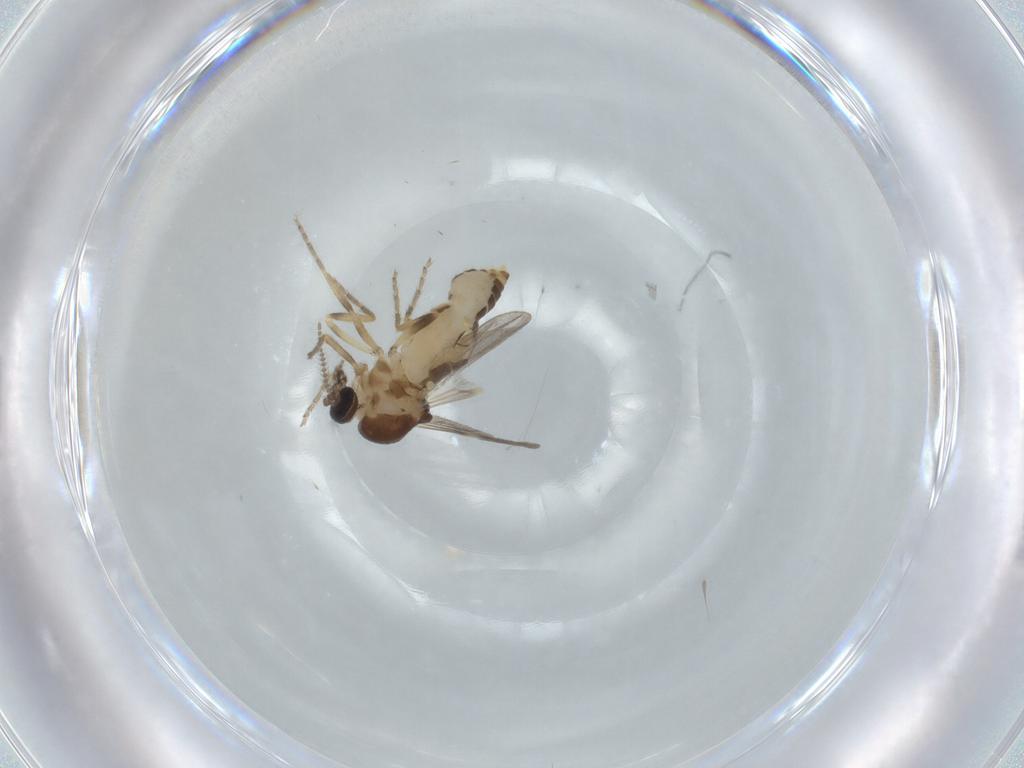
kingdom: Animalia
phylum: Arthropoda
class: Insecta
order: Diptera
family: Ceratopogonidae
